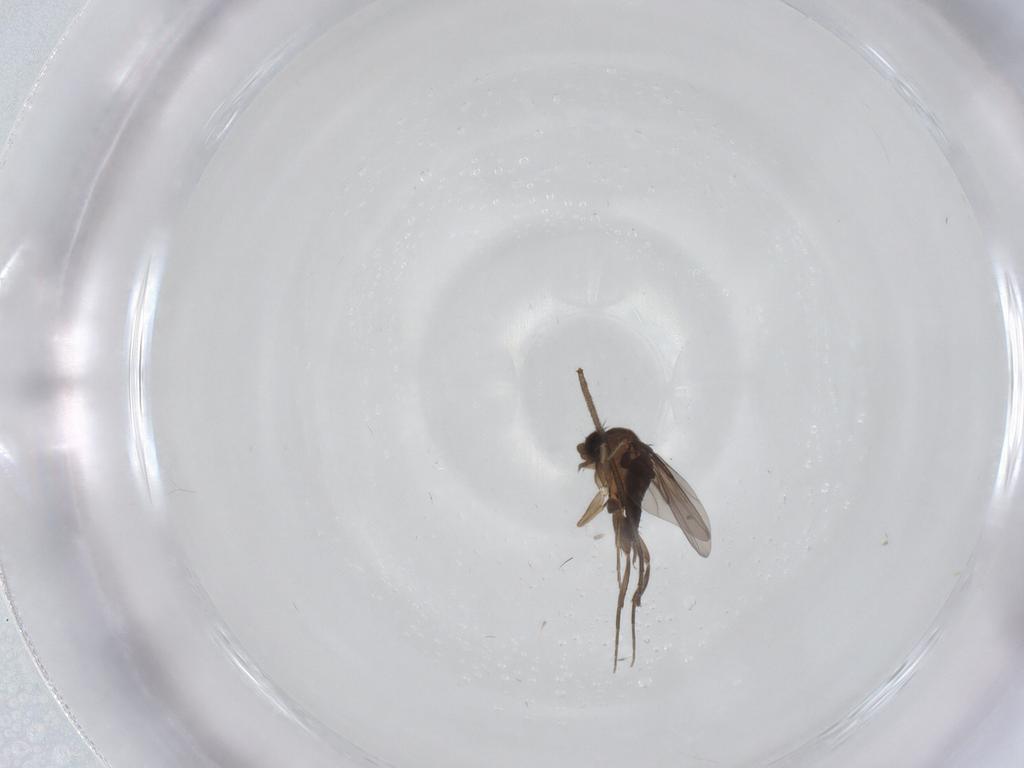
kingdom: Animalia
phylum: Arthropoda
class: Insecta
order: Diptera
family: Phoridae
